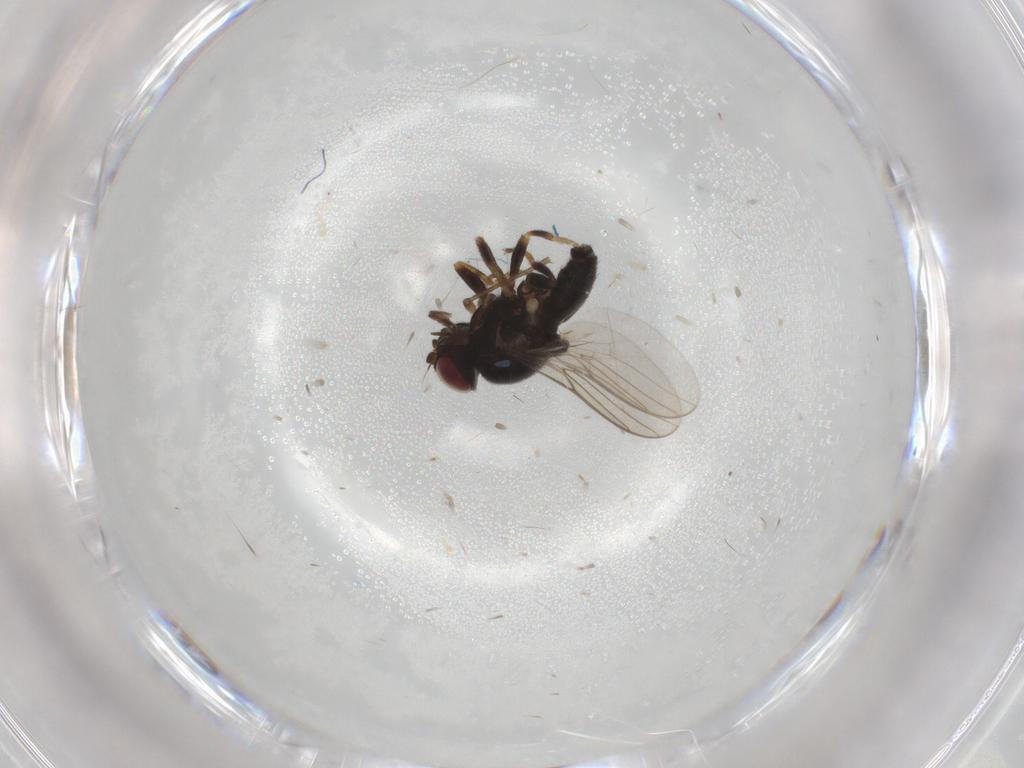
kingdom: Animalia
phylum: Arthropoda
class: Insecta
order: Diptera
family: Chloropidae
